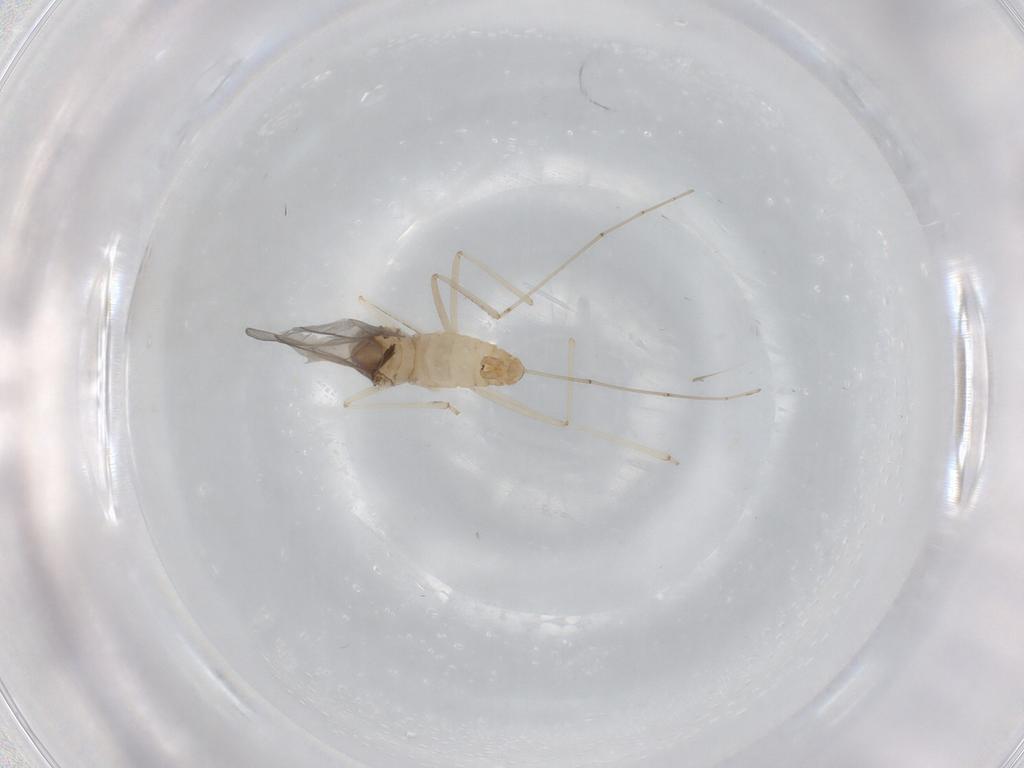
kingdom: Animalia
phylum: Arthropoda
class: Insecta
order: Diptera
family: Cecidomyiidae
